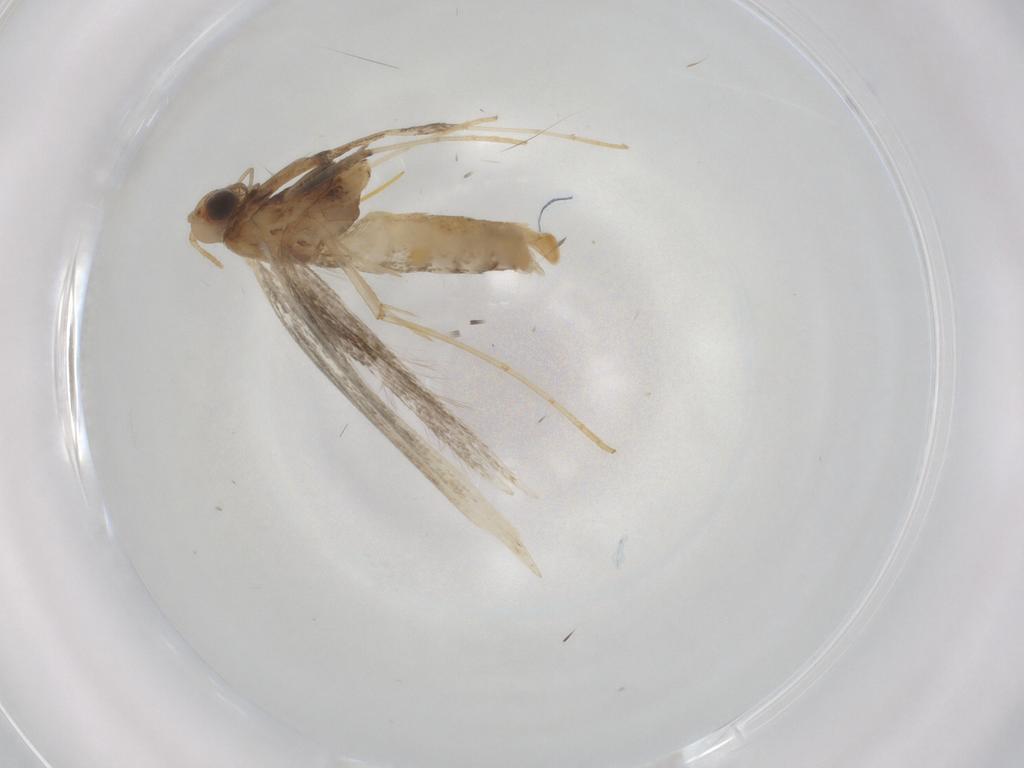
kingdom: Animalia
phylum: Arthropoda
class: Insecta
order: Lepidoptera
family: Gracillariidae
